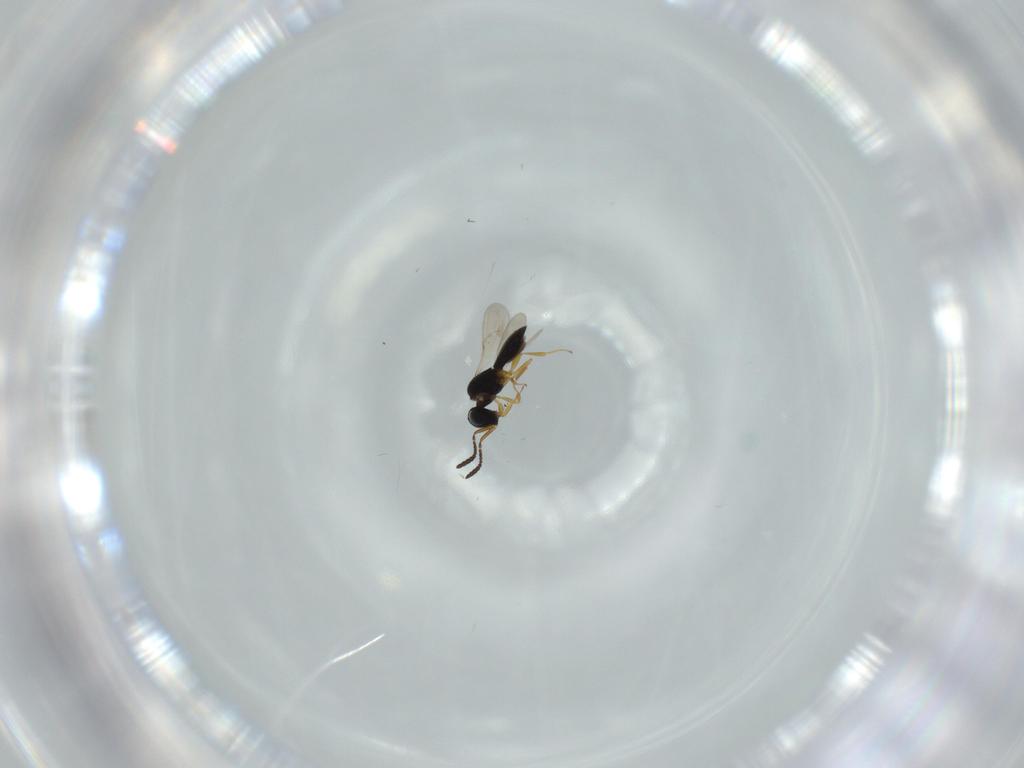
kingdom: Animalia
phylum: Arthropoda
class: Insecta
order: Hymenoptera
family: Scelionidae
